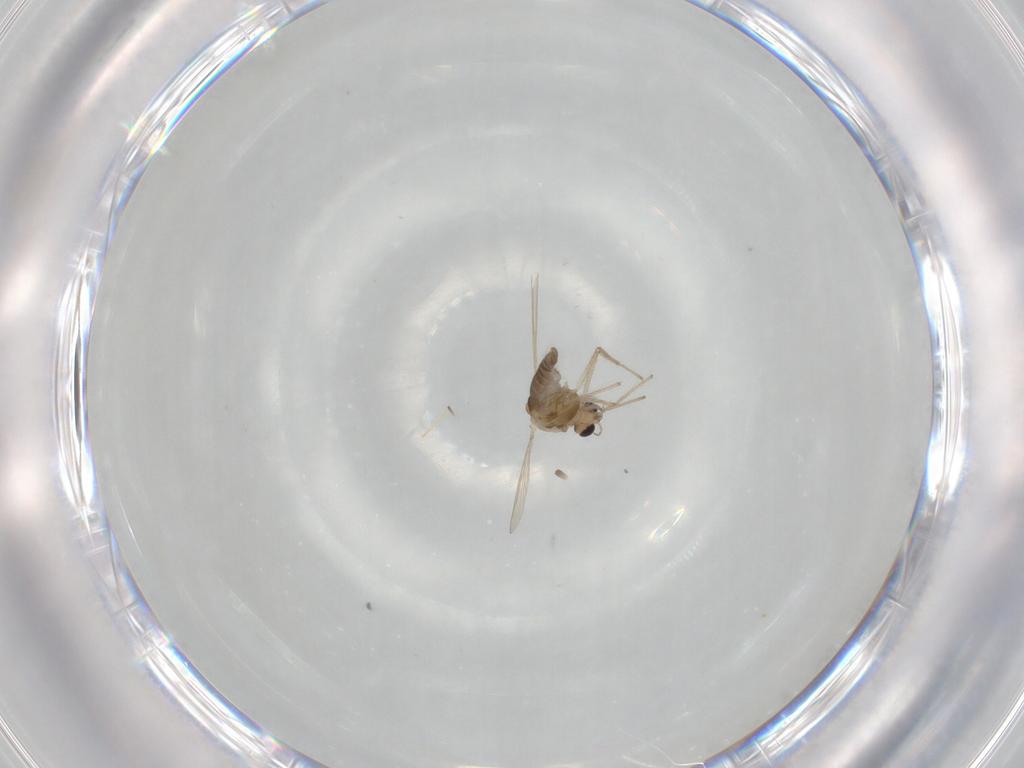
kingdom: Animalia
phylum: Arthropoda
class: Insecta
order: Diptera
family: Chironomidae
